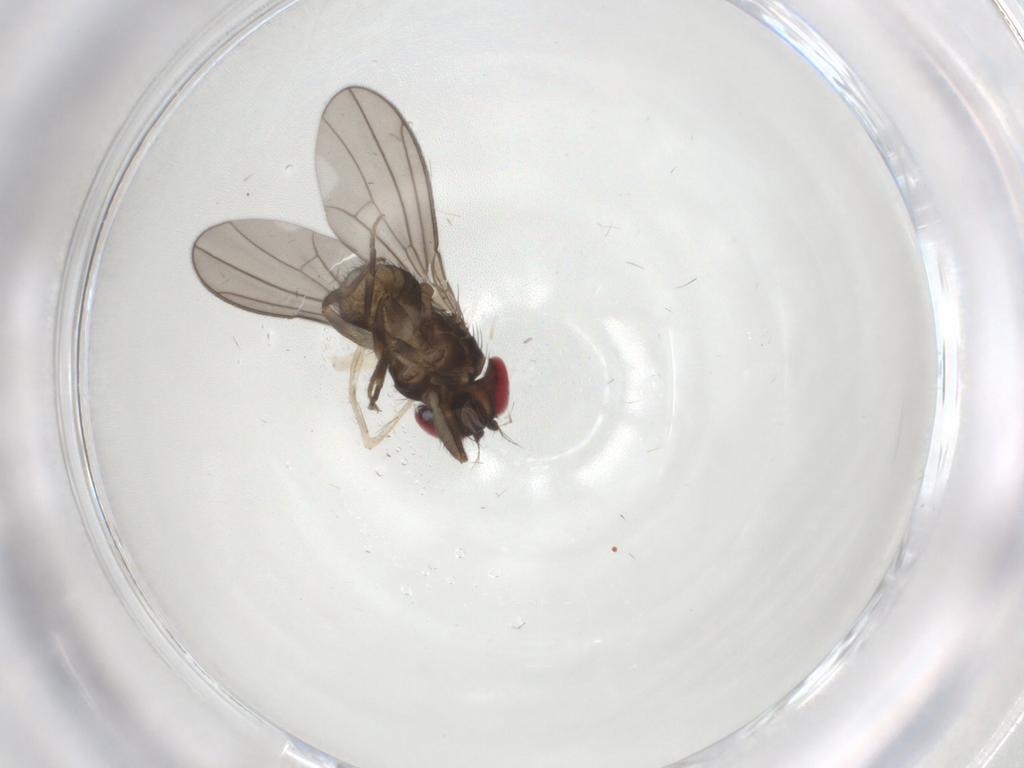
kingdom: Animalia
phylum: Arthropoda
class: Insecta
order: Diptera
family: Drosophilidae
